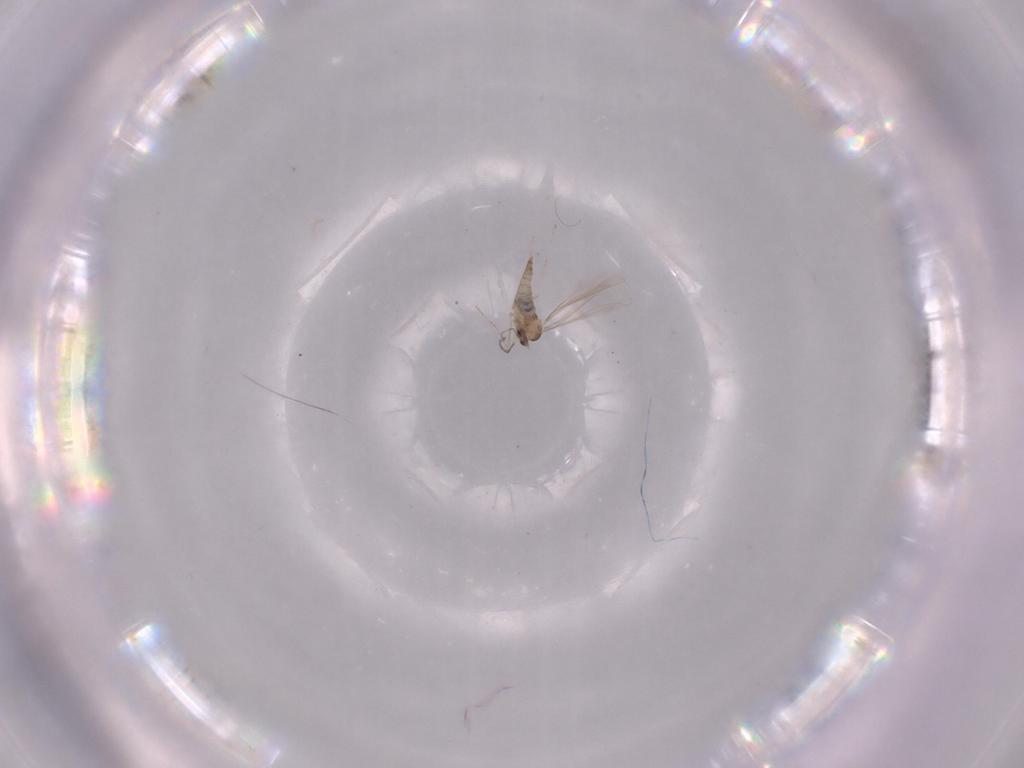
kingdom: Animalia
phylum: Arthropoda
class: Insecta
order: Diptera
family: Cecidomyiidae
